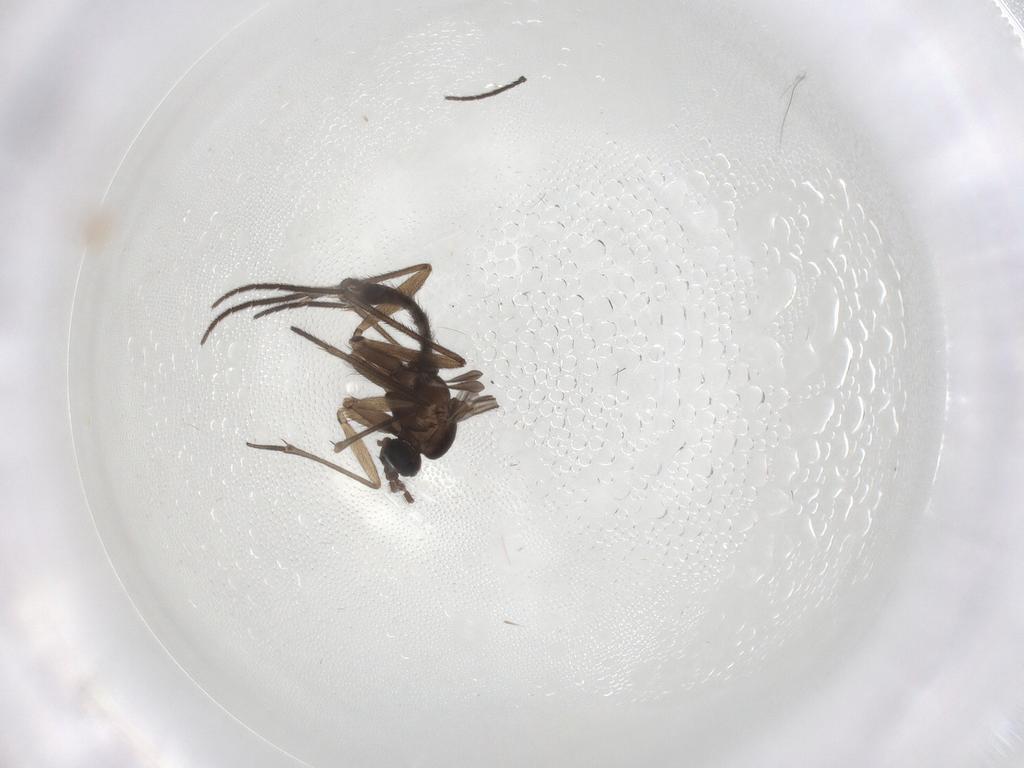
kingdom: Animalia
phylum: Arthropoda
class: Insecta
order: Diptera
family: Sciaridae
